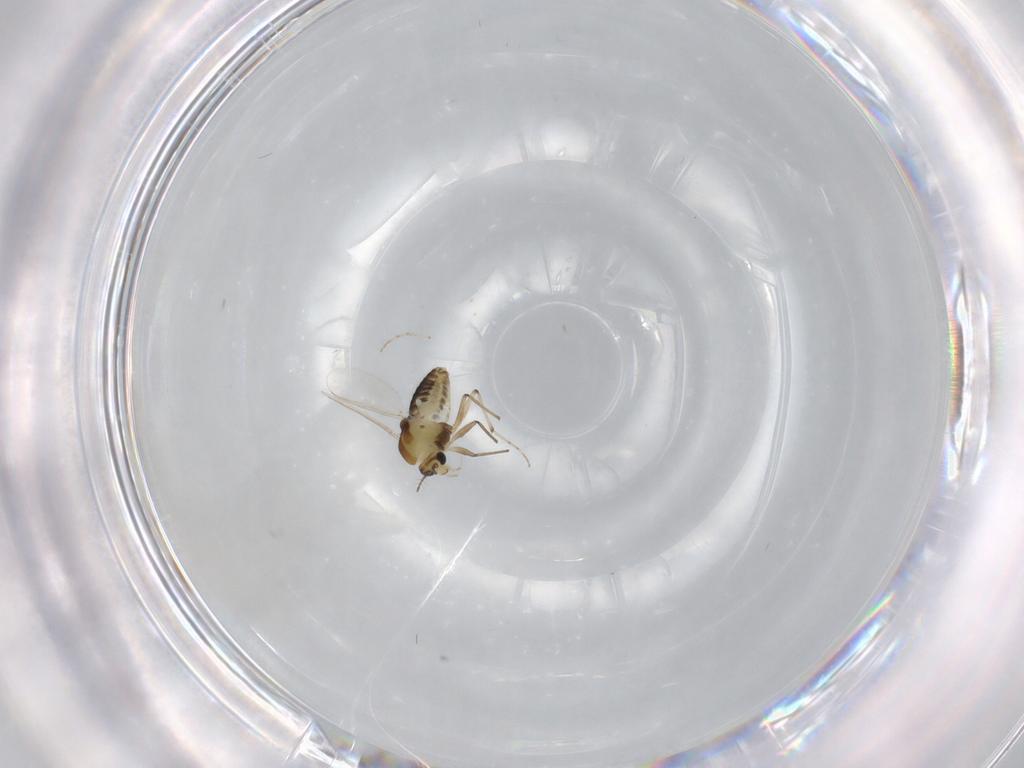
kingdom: Animalia
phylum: Arthropoda
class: Insecta
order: Diptera
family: Chironomidae
